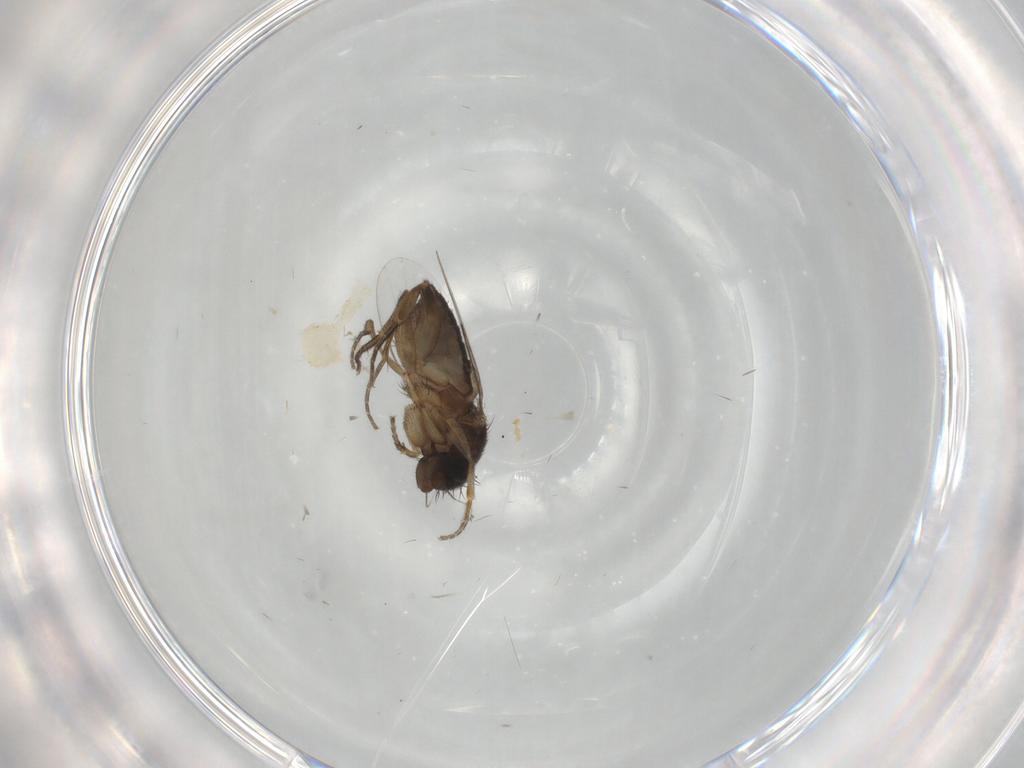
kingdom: Animalia
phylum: Arthropoda
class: Insecta
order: Diptera
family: Phoridae
